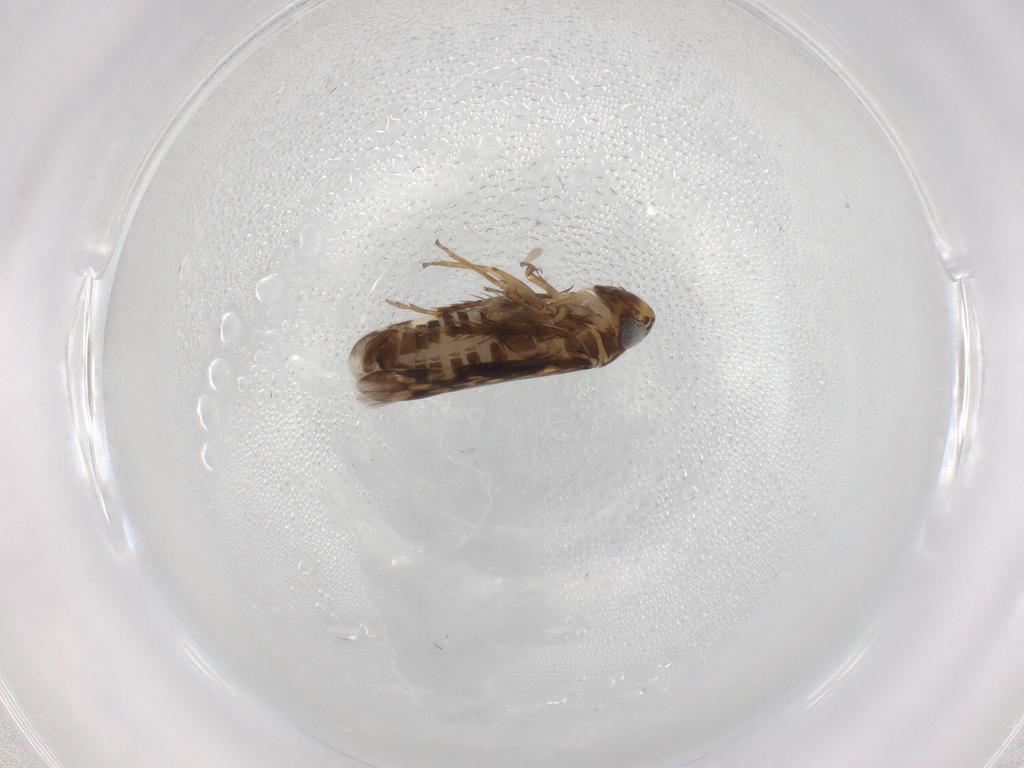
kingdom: Animalia
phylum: Arthropoda
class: Insecta
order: Hemiptera
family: Cicadellidae
